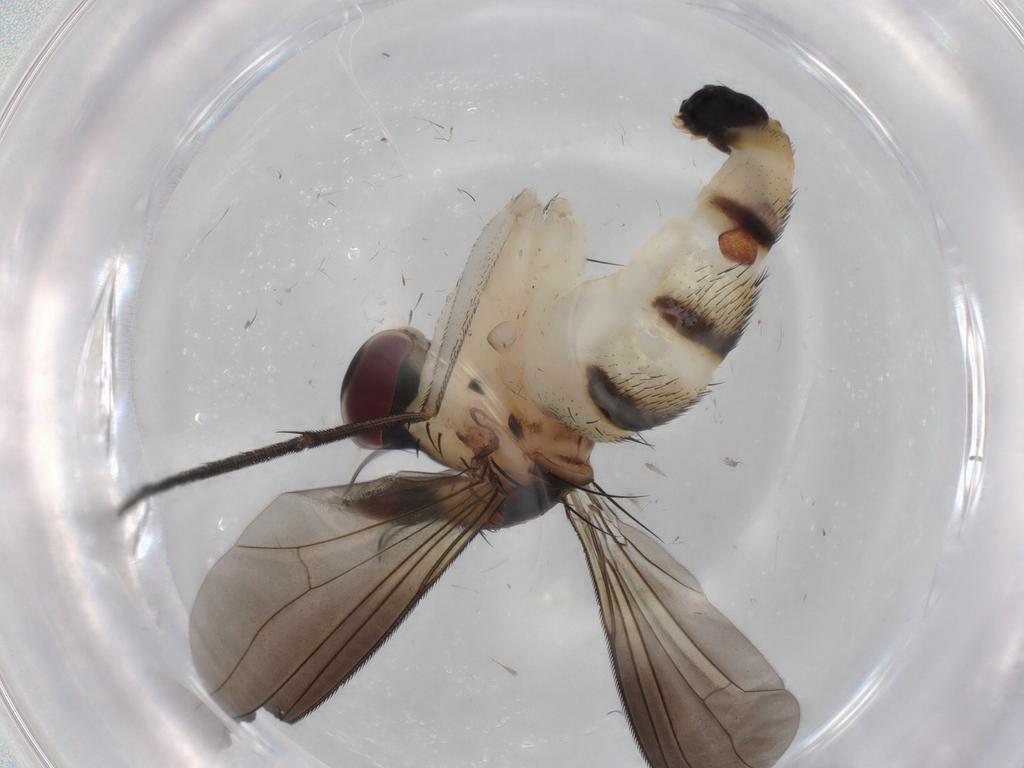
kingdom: Animalia
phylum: Arthropoda
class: Insecta
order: Diptera
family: Dolichopodidae
